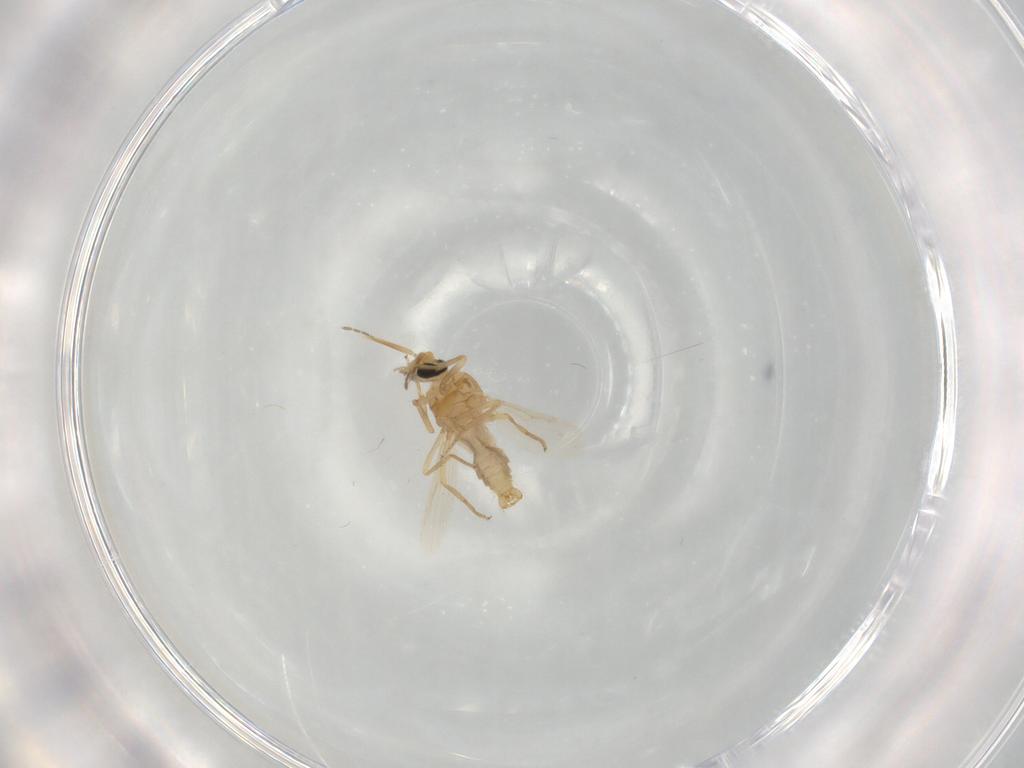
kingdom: Animalia
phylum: Arthropoda
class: Insecta
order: Diptera
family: Ceratopogonidae
